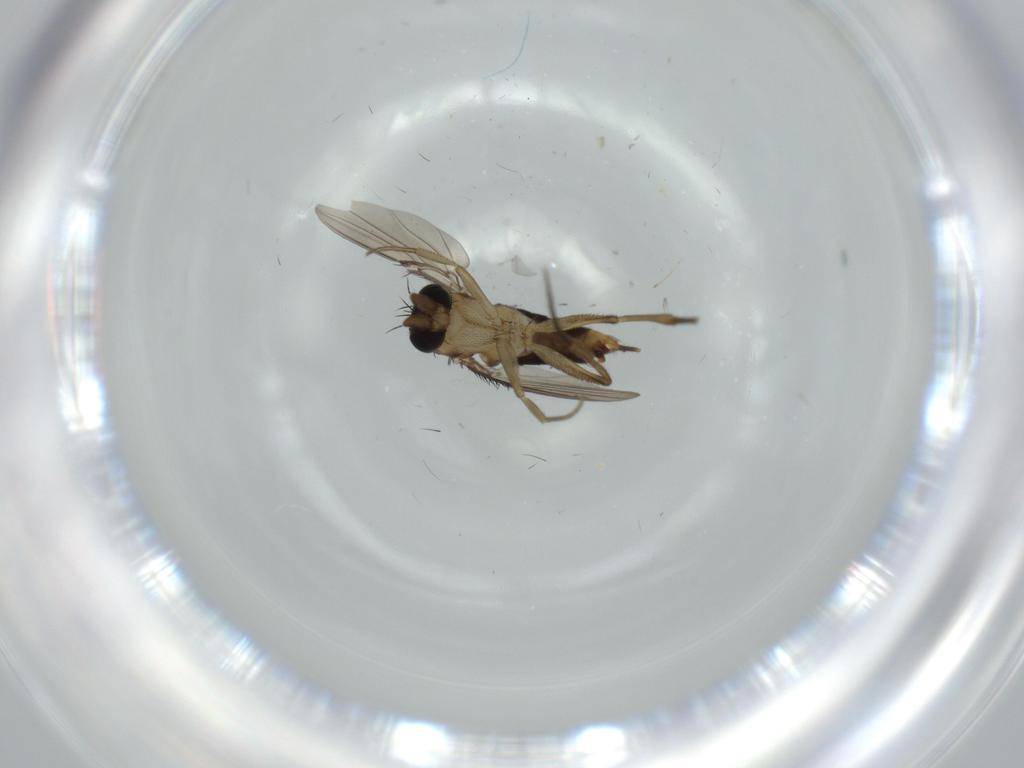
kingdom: Animalia
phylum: Arthropoda
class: Insecta
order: Diptera
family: Phoridae
